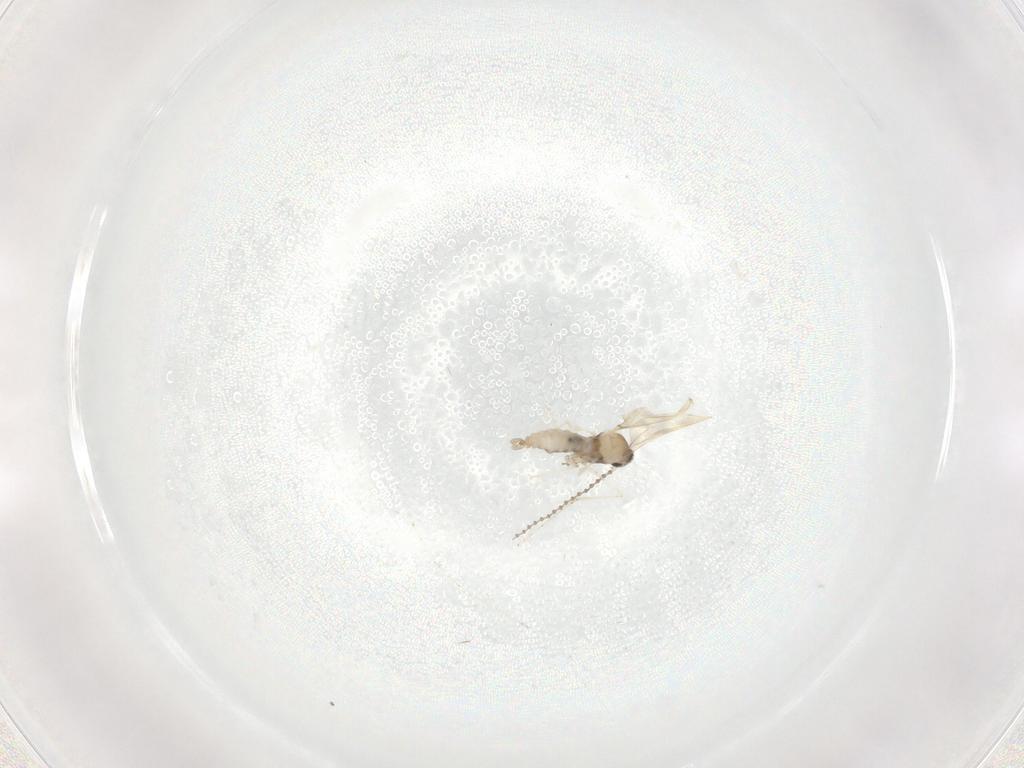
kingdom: Animalia
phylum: Arthropoda
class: Insecta
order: Diptera
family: Cecidomyiidae
